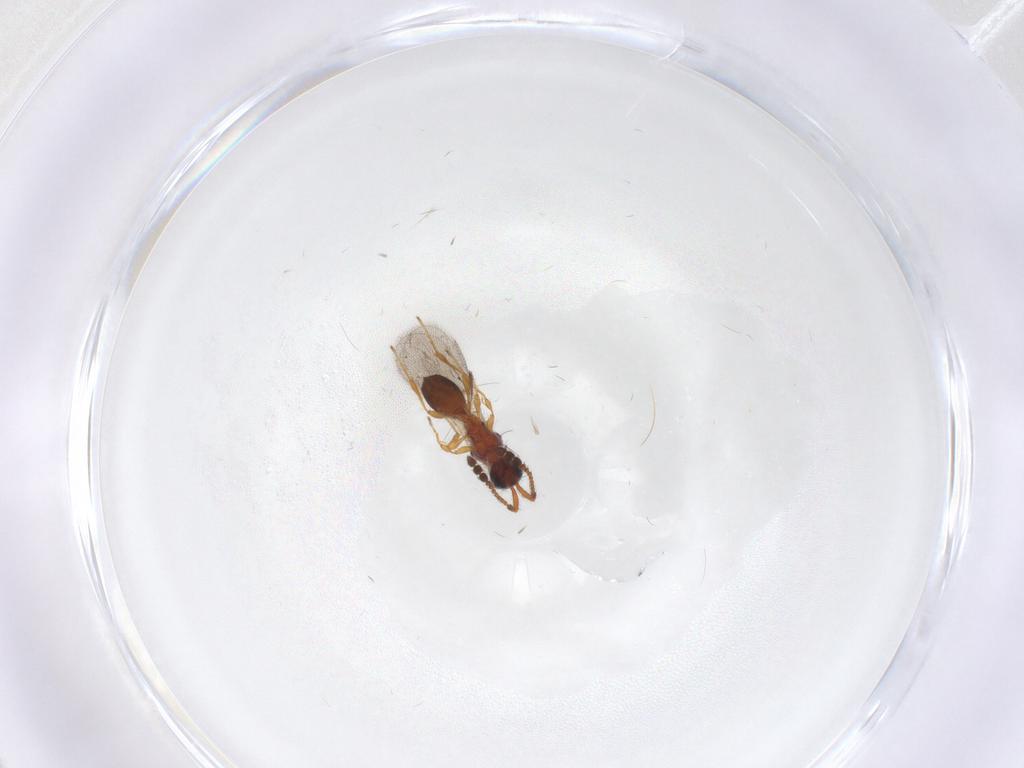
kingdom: Animalia
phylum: Arthropoda
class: Insecta
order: Hymenoptera
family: Diapriidae
